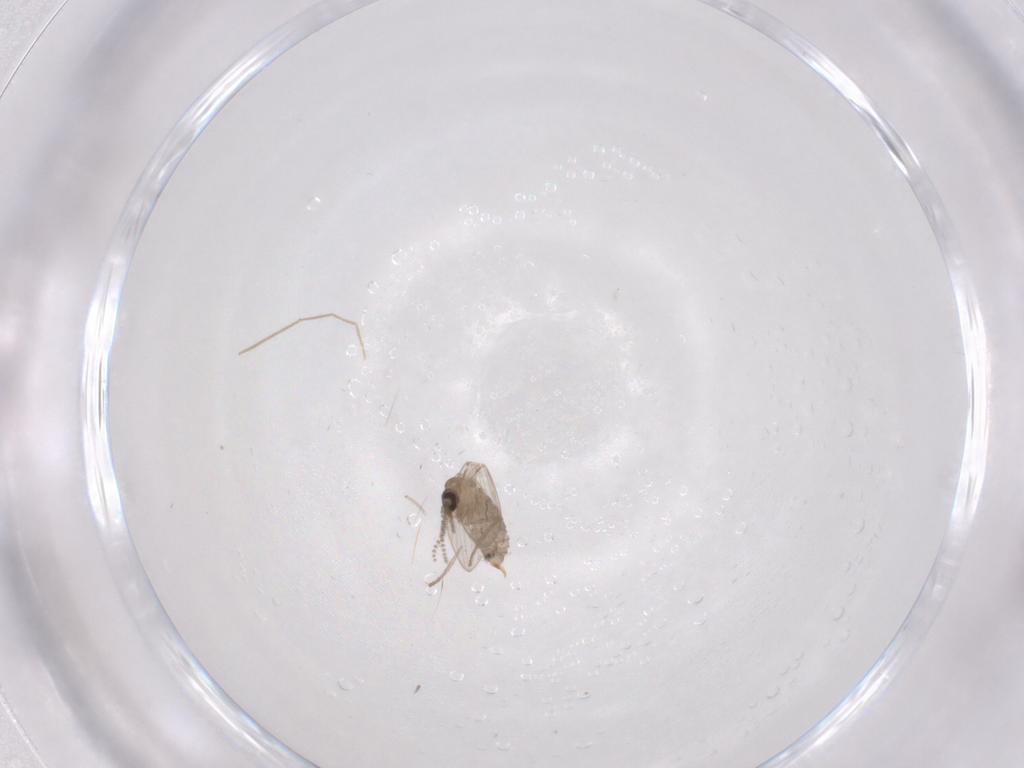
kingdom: Animalia
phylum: Arthropoda
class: Insecta
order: Diptera
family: Psychodidae
